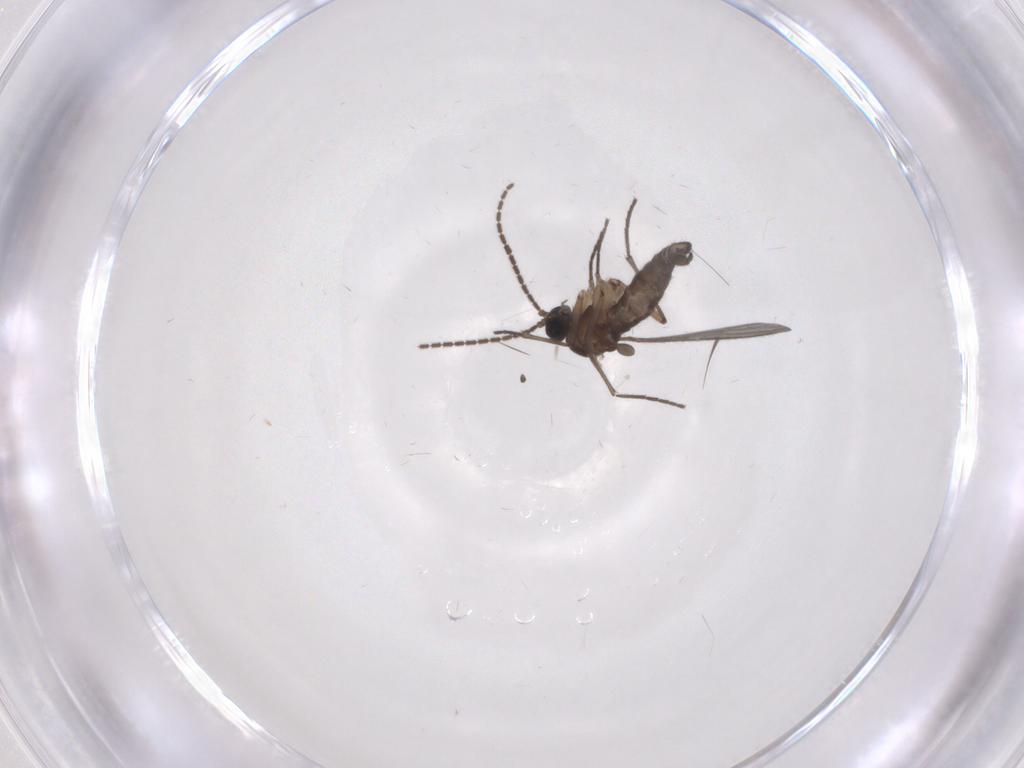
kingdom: Animalia
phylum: Arthropoda
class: Insecta
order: Diptera
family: Sciaridae
